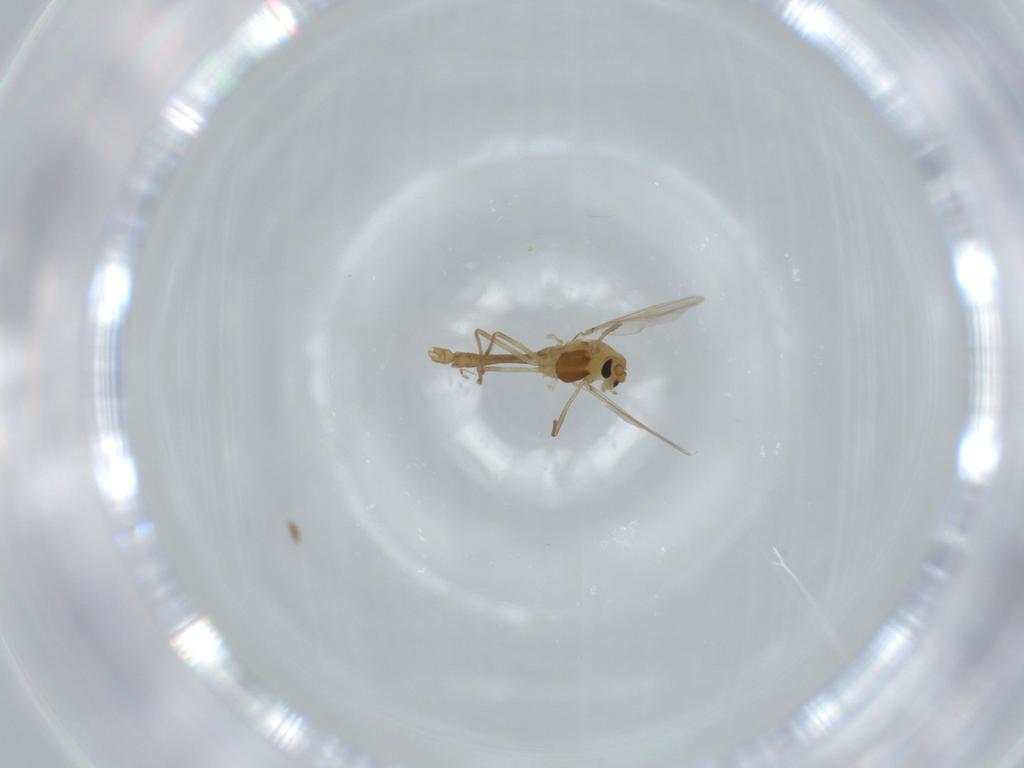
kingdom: Animalia
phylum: Arthropoda
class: Insecta
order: Diptera
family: Chironomidae
